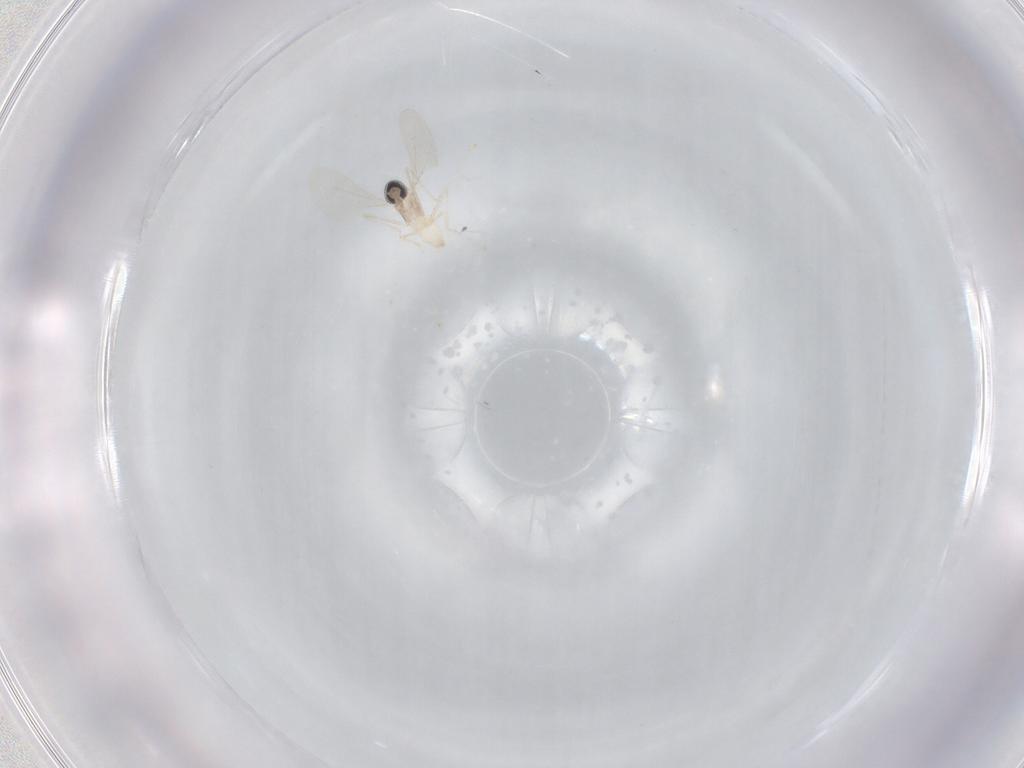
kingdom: Animalia
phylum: Arthropoda
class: Insecta
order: Diptera
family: Cecidomyiidae
